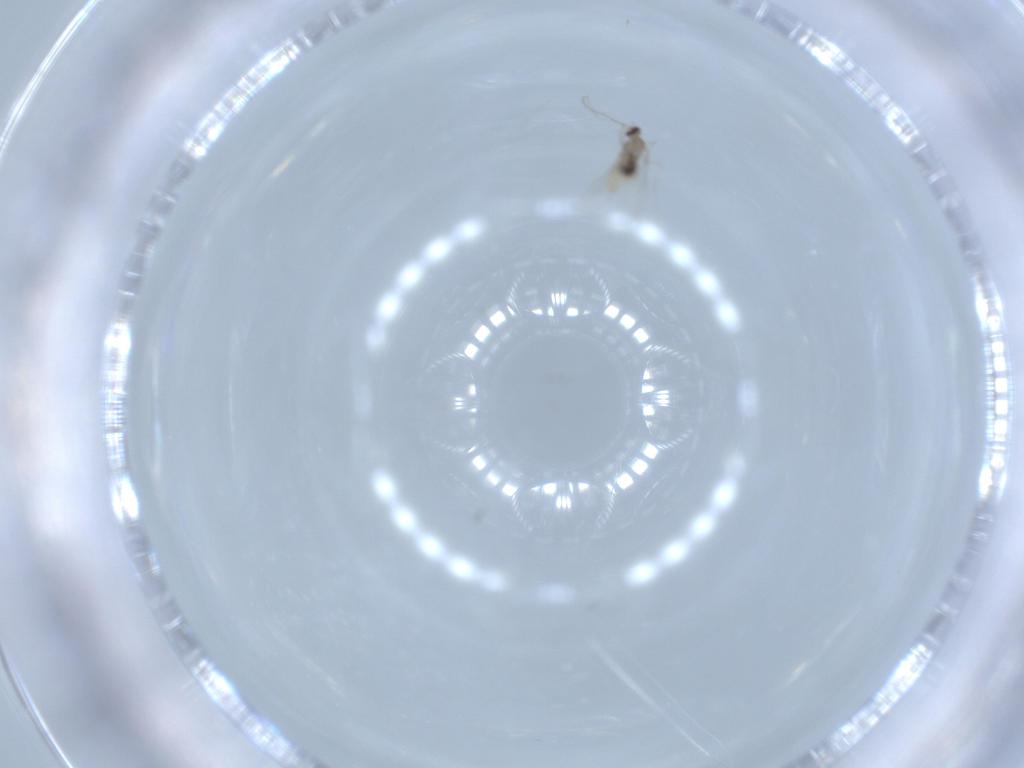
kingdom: Animalia
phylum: Arthropoda
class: Insecta
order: Diptera
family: Cecidomyiidae
